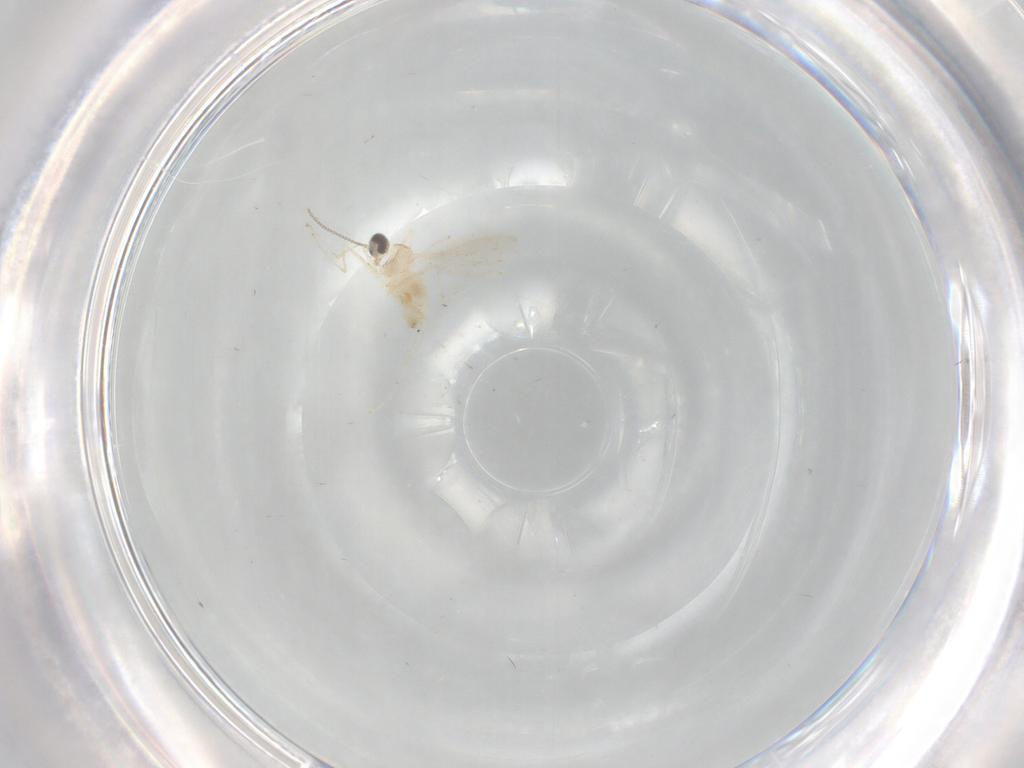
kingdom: Animalia
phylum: Arthropoda
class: Insecta
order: Diptera
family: Cecidomyiidae
